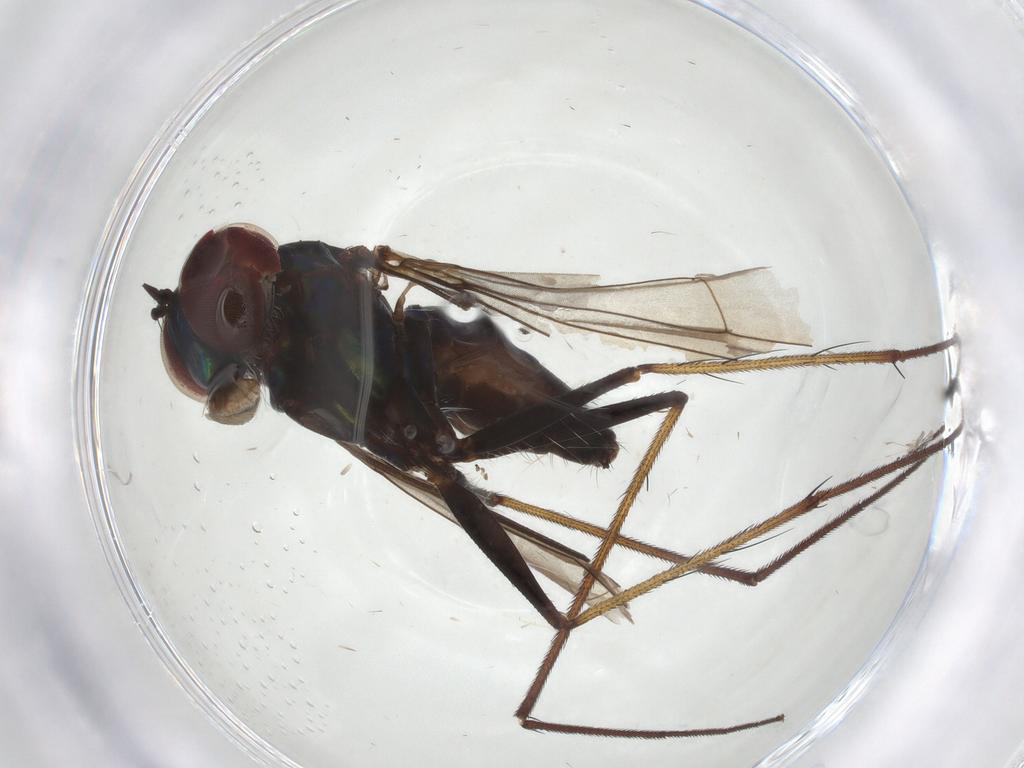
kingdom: Animalia
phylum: Arthropoda
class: Insecta
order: Diptera
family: Dolichopodidae
